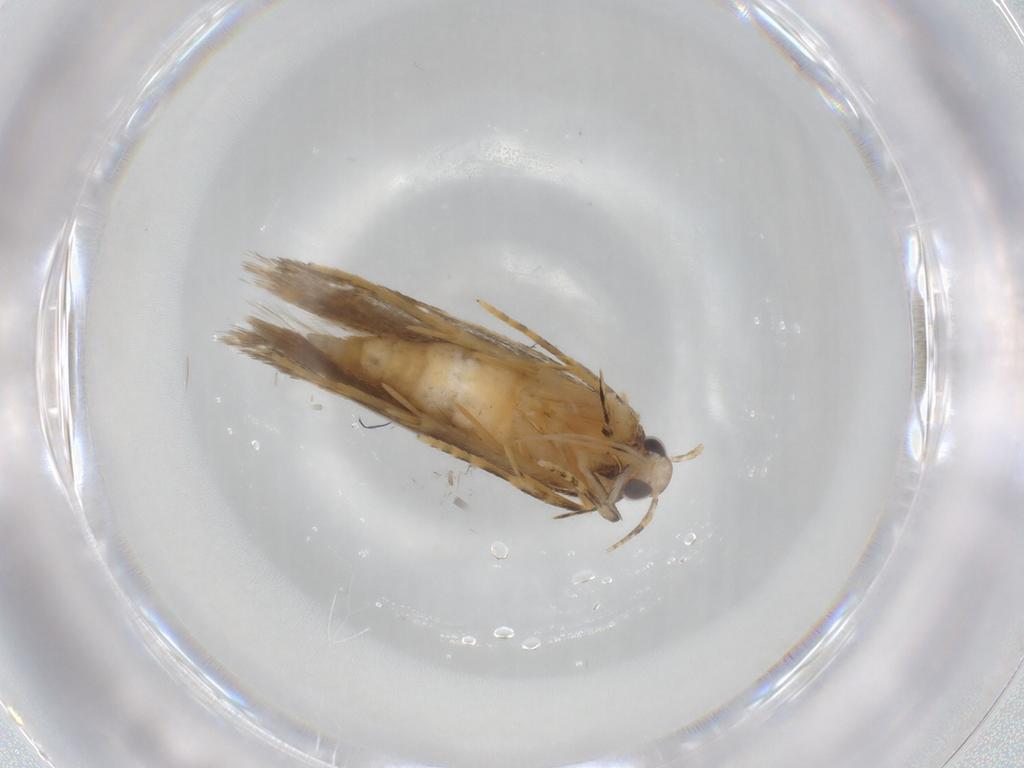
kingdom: Animalia
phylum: Arthropoda
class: Insecta
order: Lepidoptera
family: Autostichidae
